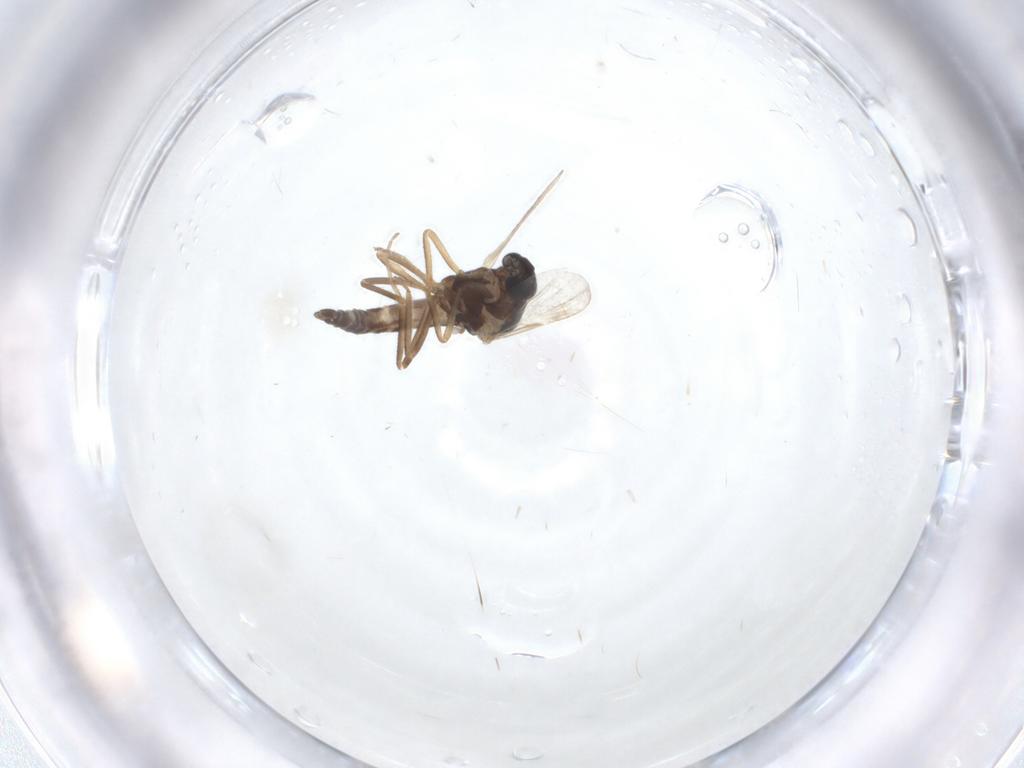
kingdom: Animalia
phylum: Arthropoda
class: Insecta
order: Diptera
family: Ceratopogonidae
